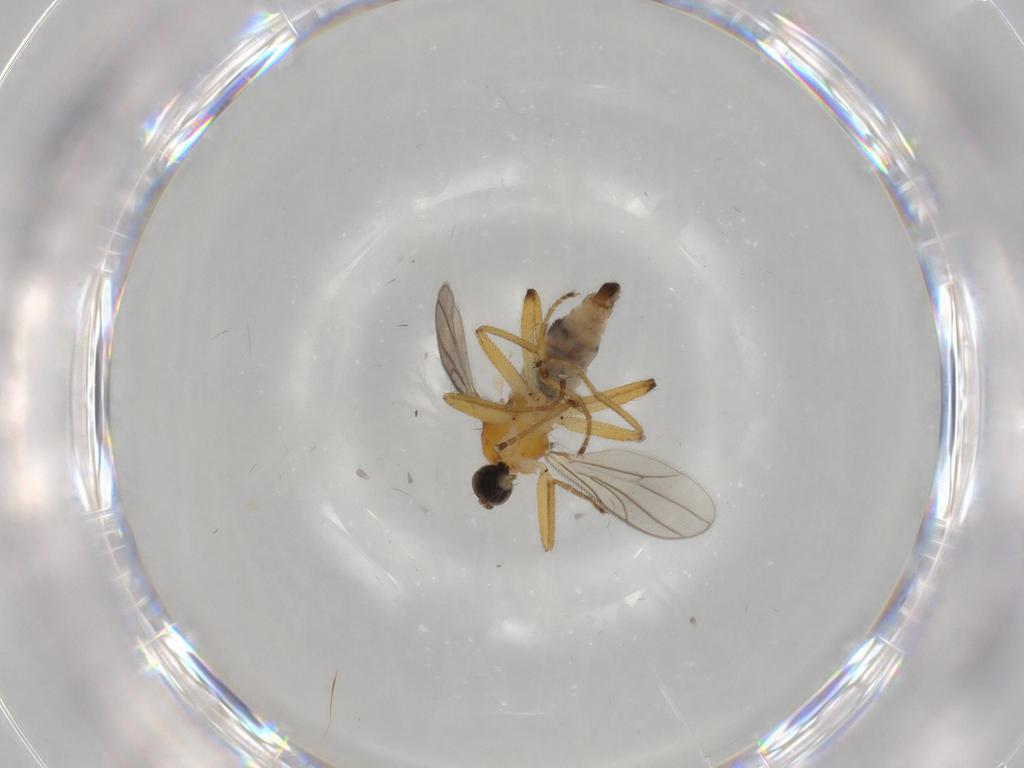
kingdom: Animalia
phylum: Arthropoda
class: Insecta
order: Diptera
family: Hybotidae
